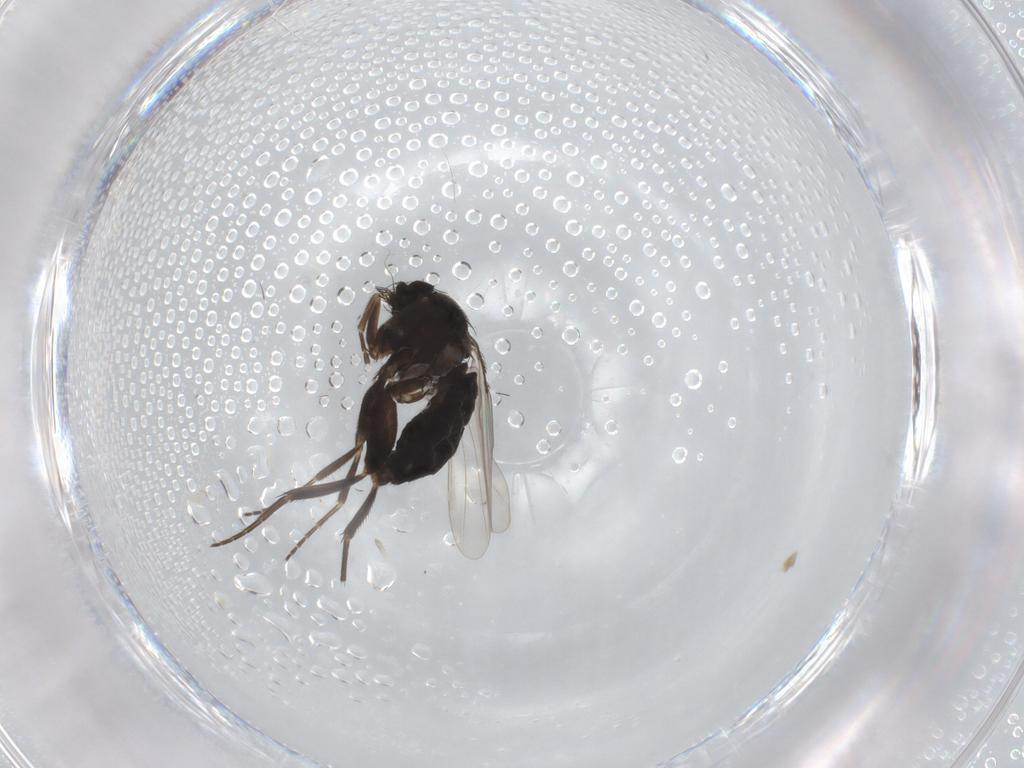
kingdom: Animalia
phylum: Arthropoda
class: Insecta
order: Diptera
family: Phoridae
